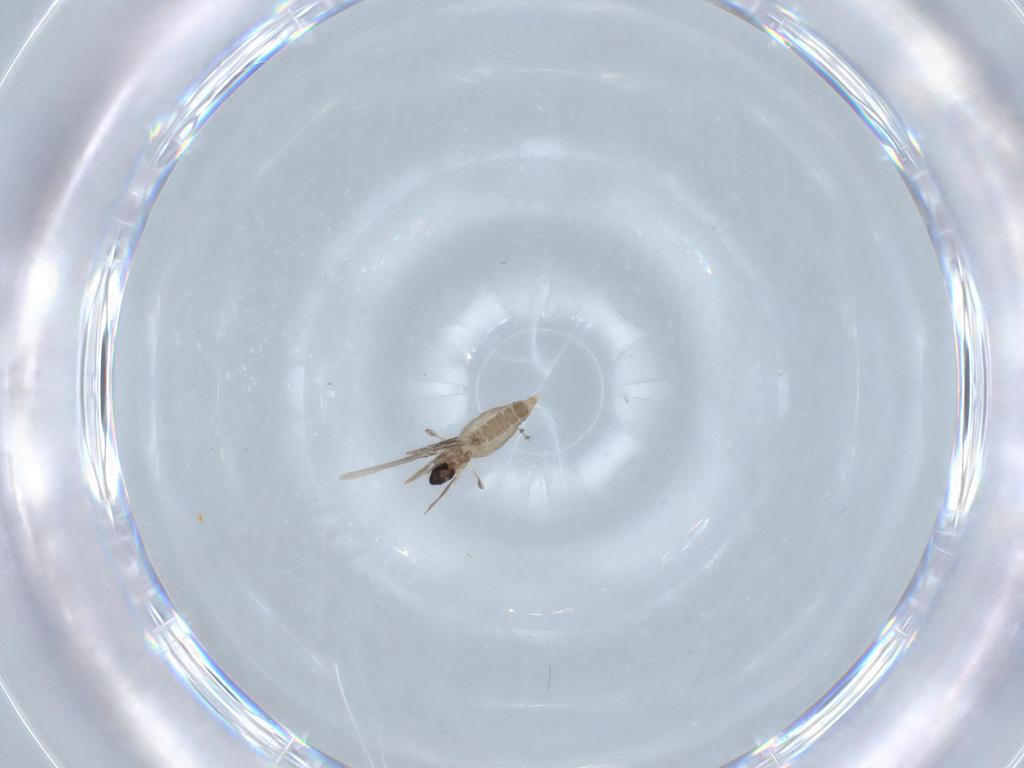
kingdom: Animalia
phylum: Arthropoda
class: Insecta
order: Diptera
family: Cecidomyiidae
